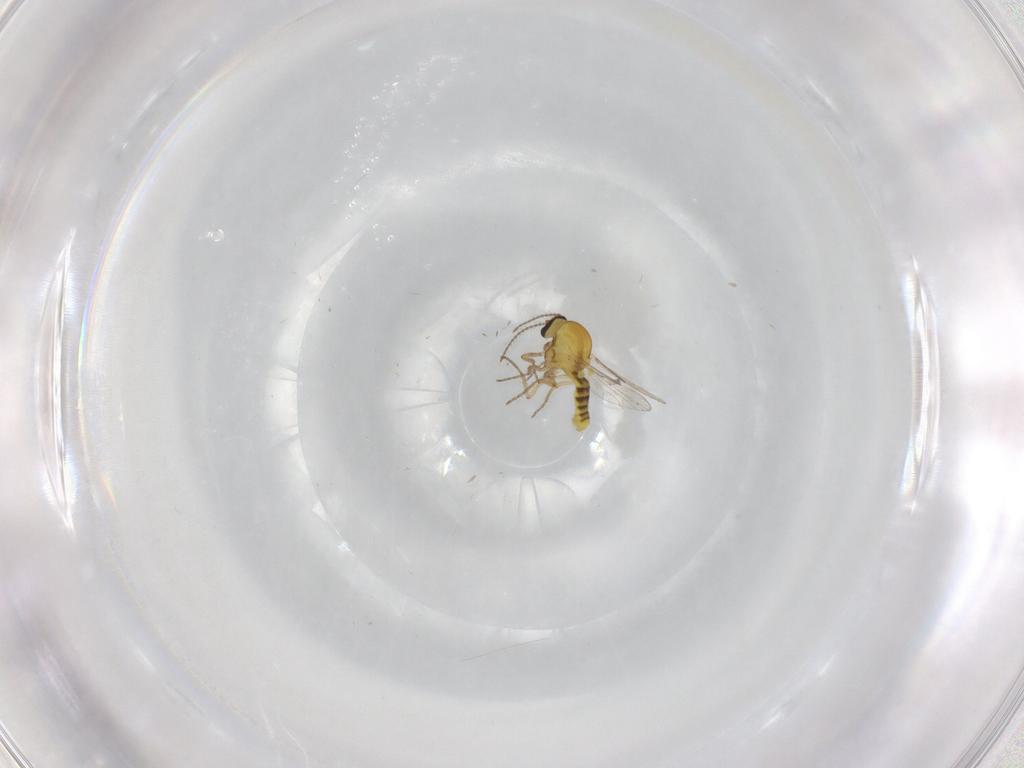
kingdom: Animalia
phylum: Arthropoda
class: Insecta
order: Diptera
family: Ceratopogonidae
